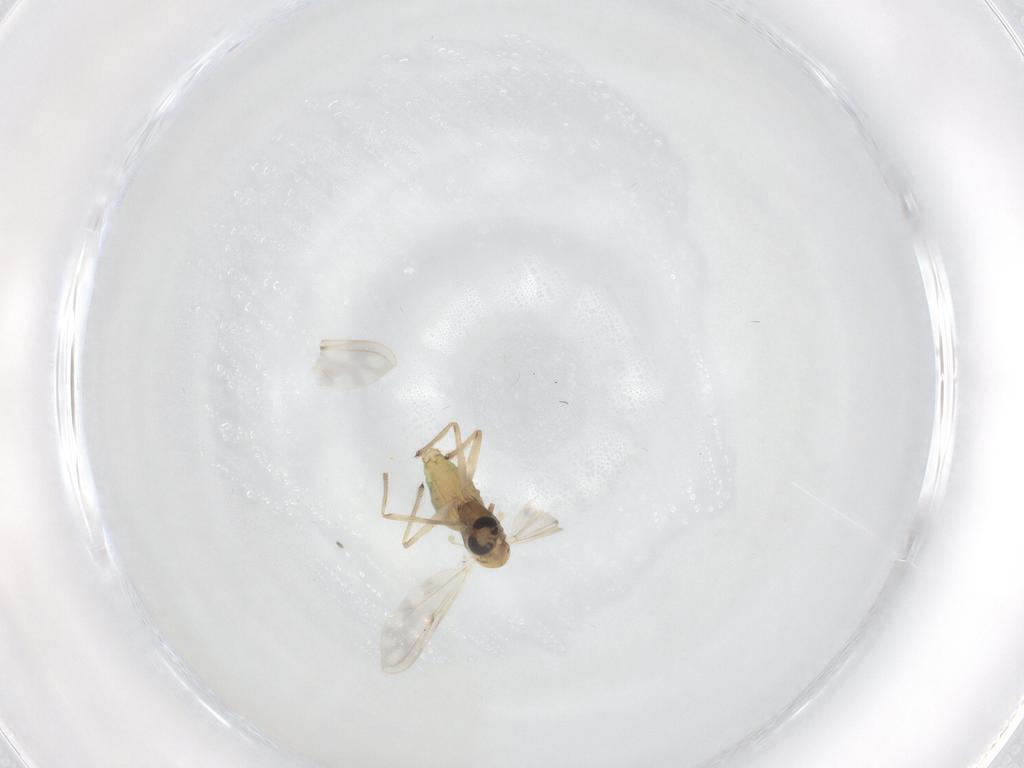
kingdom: Animalia
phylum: Arthropoda
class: Insecta
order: Diptera
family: Chironomidae
